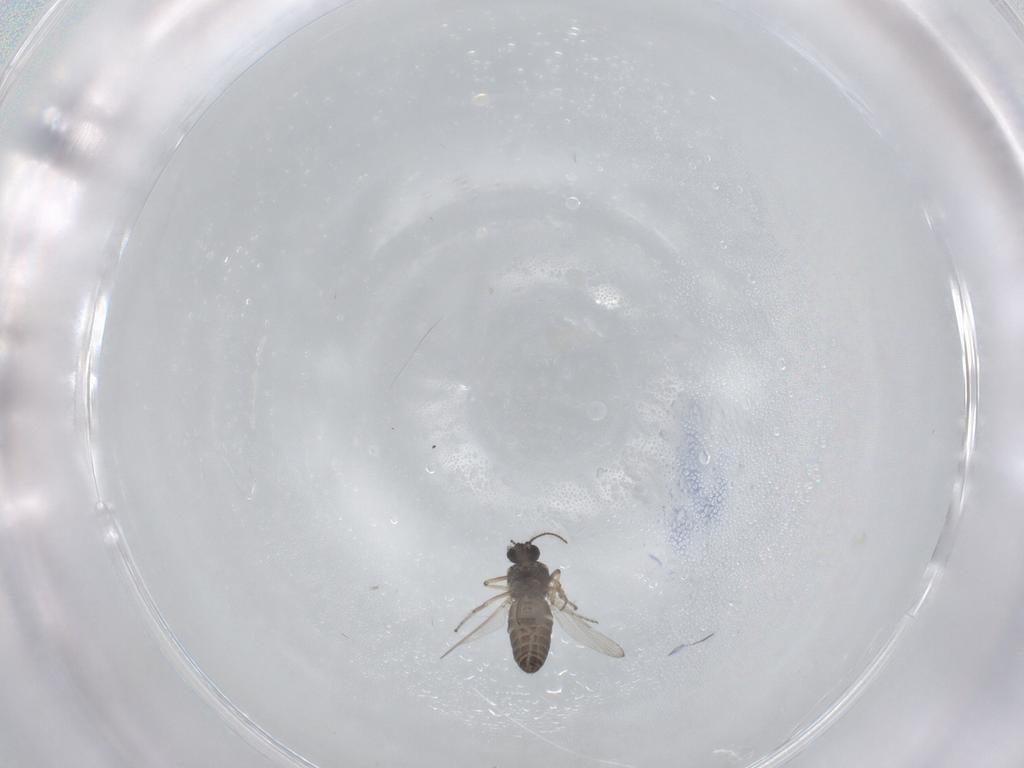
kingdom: Animalia
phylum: Arthropoda
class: Insecta
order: Diptera
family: Ceratopogonidae
